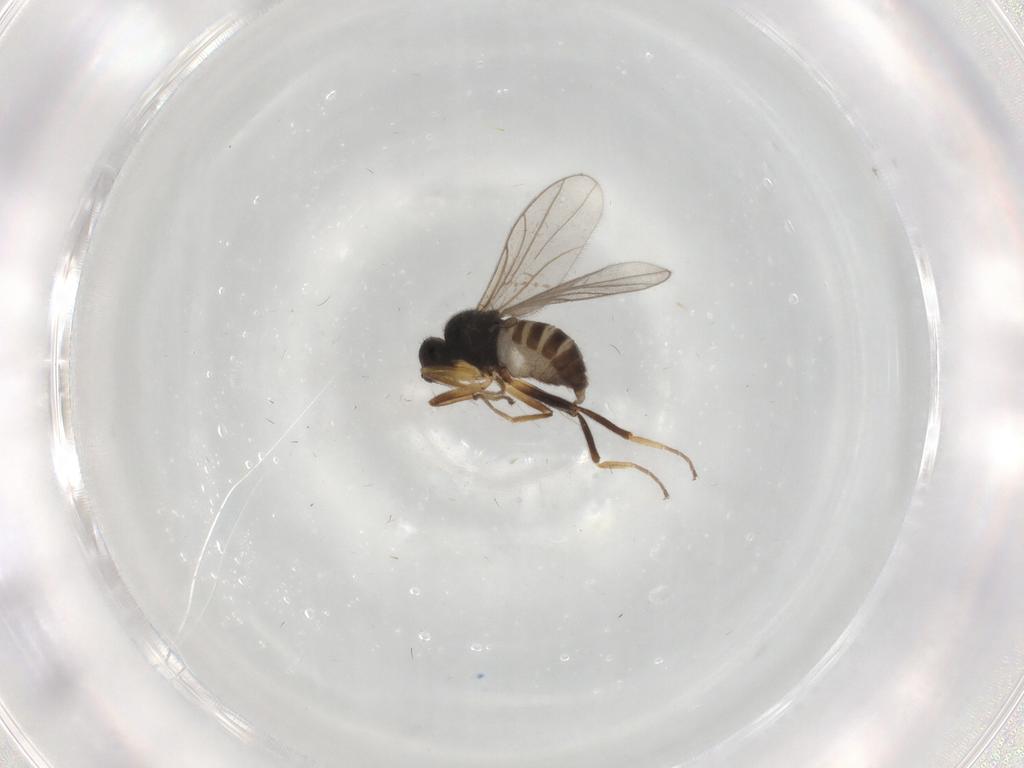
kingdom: Animalia
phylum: Arthropoda
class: Insecta
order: Diptera
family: Hybotidae
